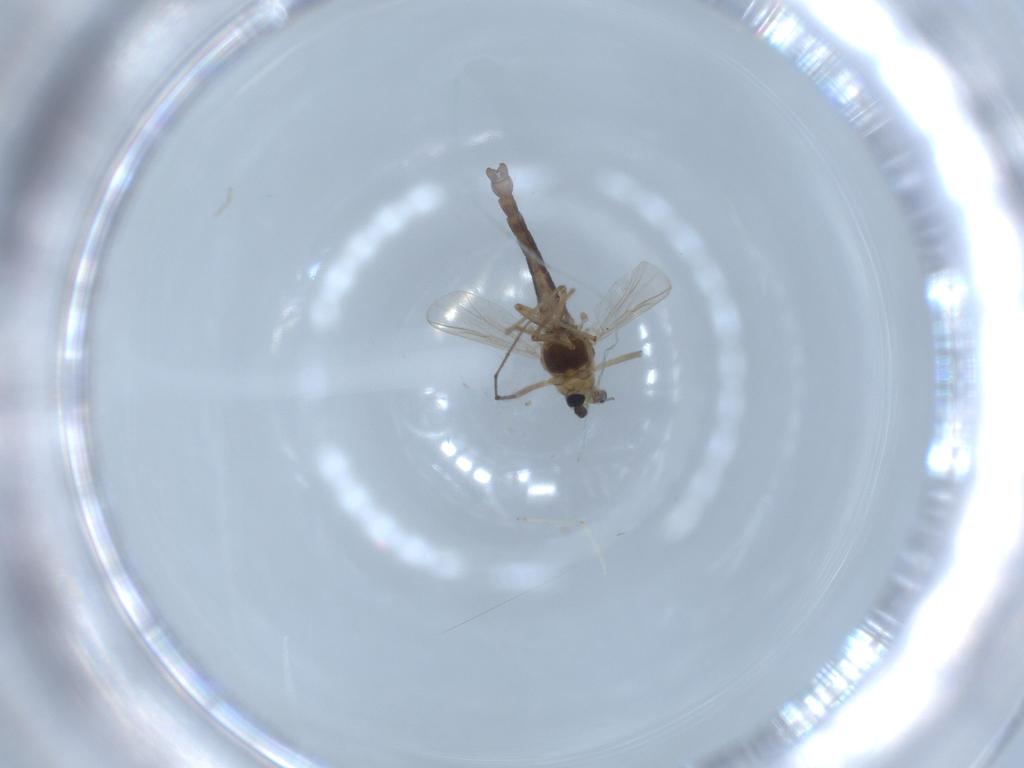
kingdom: Animalia
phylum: Arthropoda
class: Insecta
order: Diptera
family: Chironomidae
